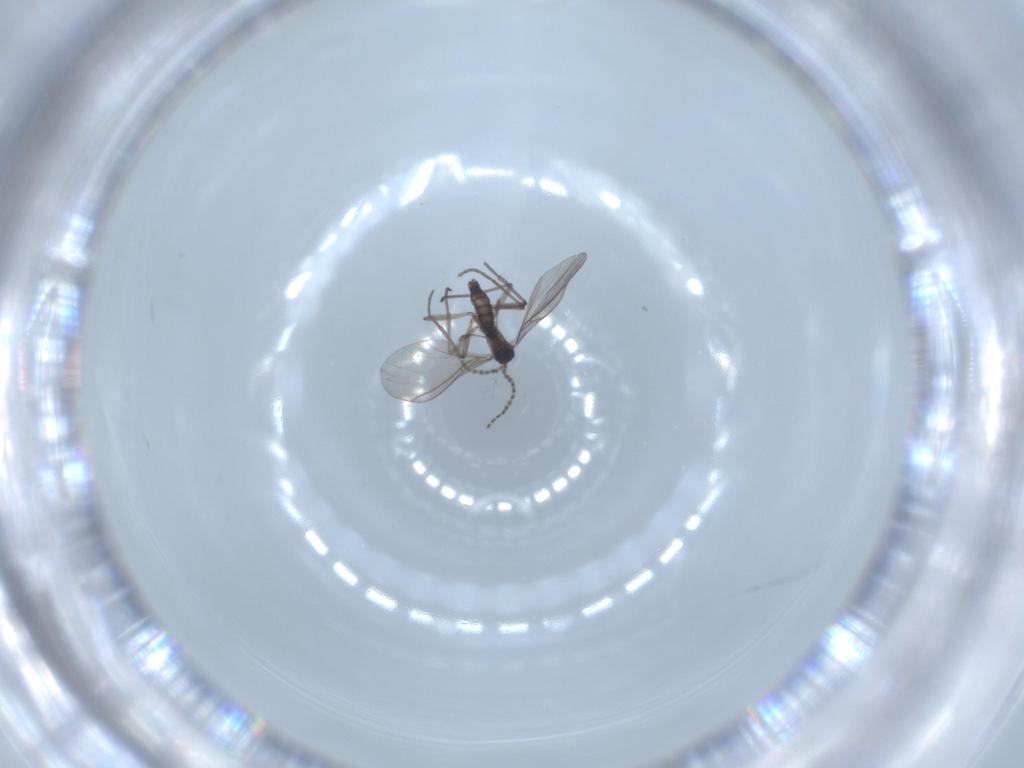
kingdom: Animalia
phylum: Arthropoda
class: Insecta
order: Diptera
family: Sciaridae
